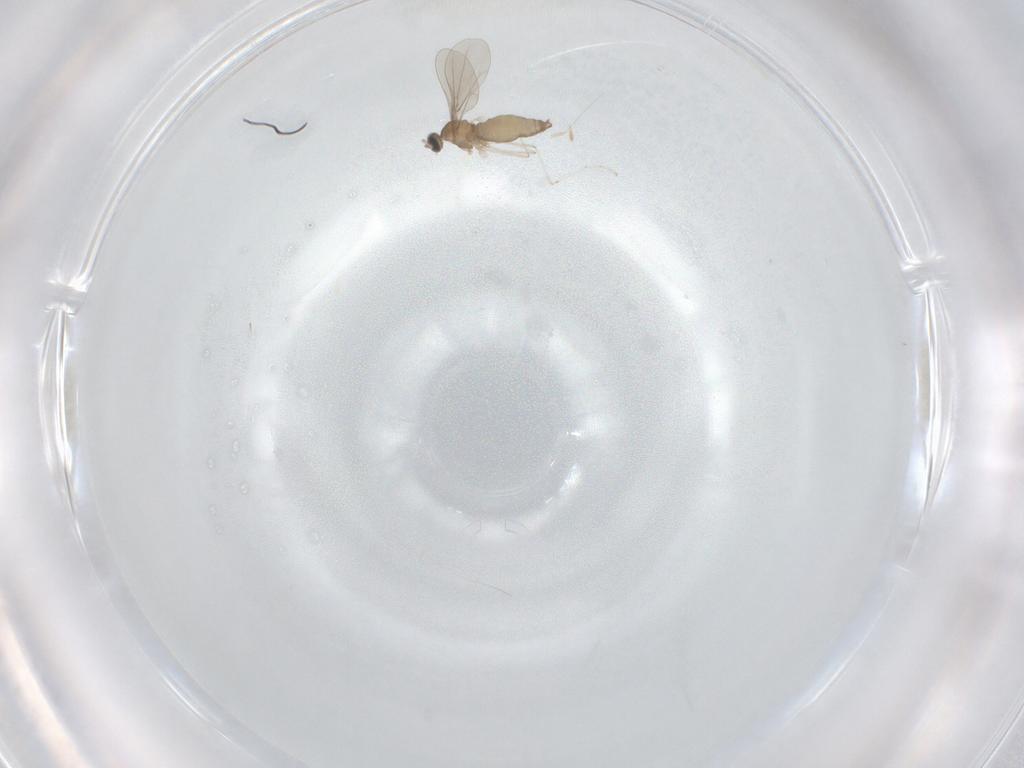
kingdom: Animalia
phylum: Arthropoda
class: Insecta
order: Diptera
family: Cecidomyiidae
